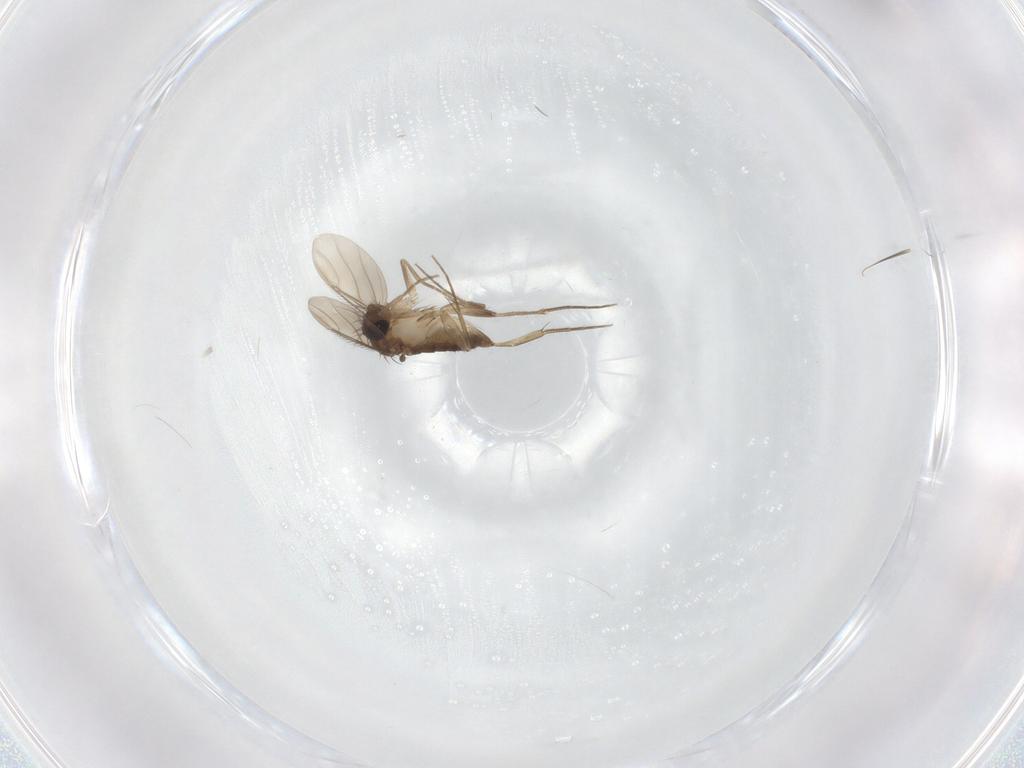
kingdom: Animalia
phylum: Arthropoda
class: Insecta
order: Diptera
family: Phoridae
